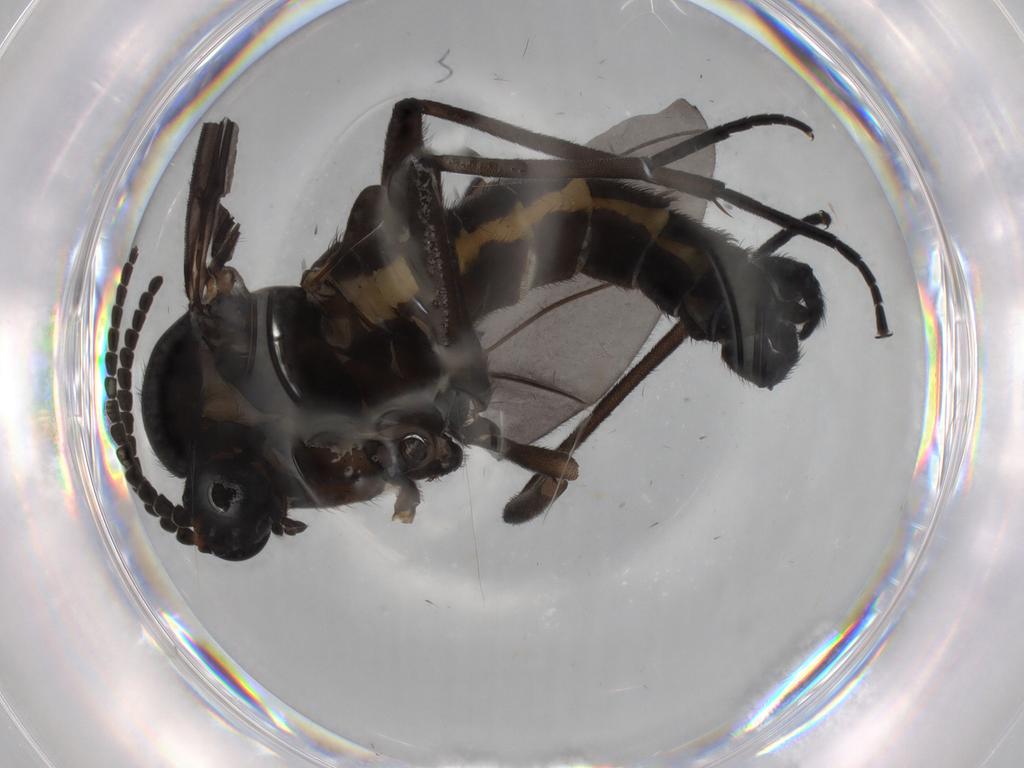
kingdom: Animalia
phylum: Arthropoda
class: Insecta
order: Diptera
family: Sciaridae
